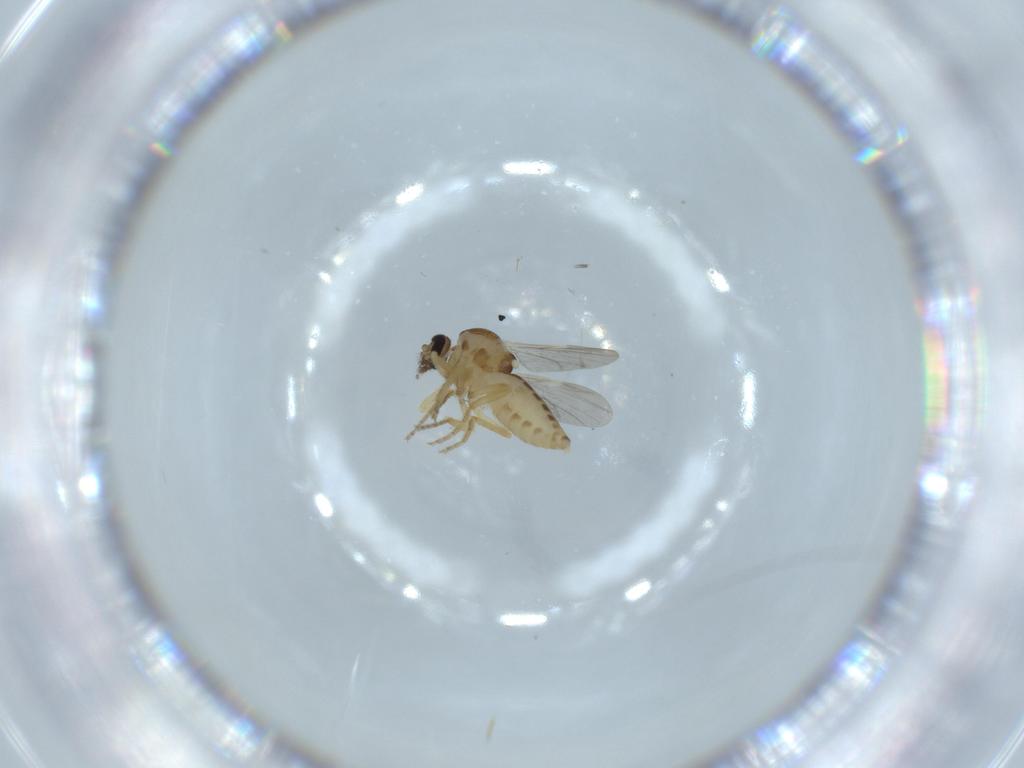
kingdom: Animalia
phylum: Arthropoda
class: Insecta
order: Diptera
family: Ceratopogonidae
